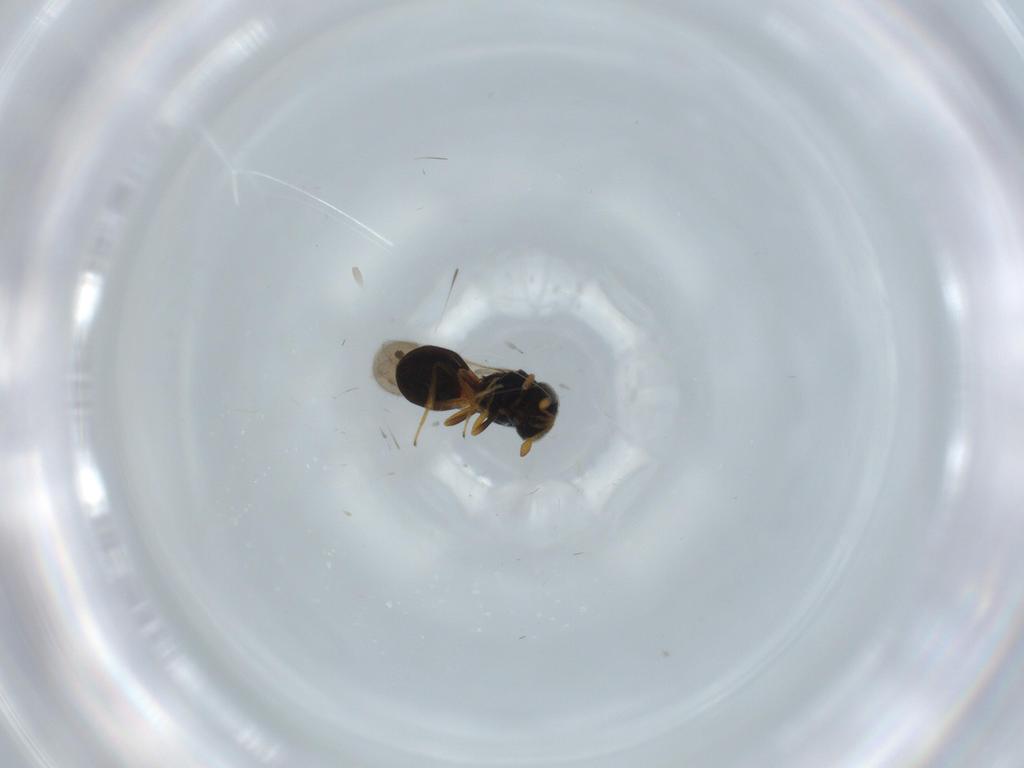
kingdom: Animalia
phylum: Arthropoda
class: Insecta
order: Hymenoptera
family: Scelionidae
